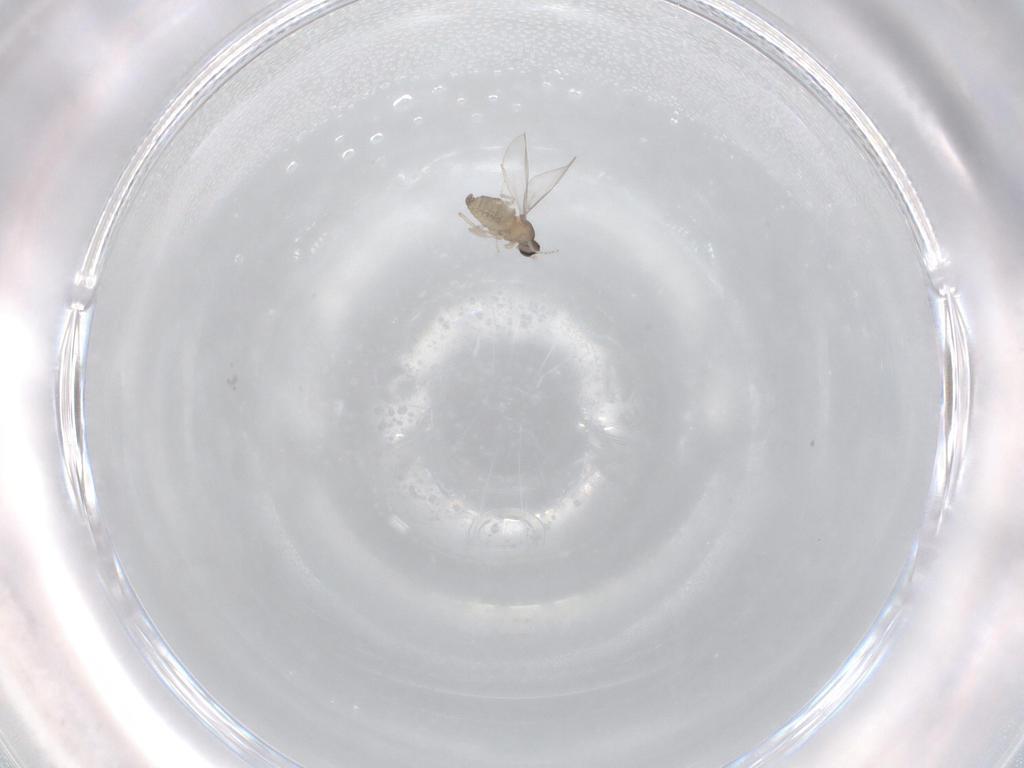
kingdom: Animalia
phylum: Arthropoda
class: Insecta
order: Diptera
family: Cecidomyiidae
